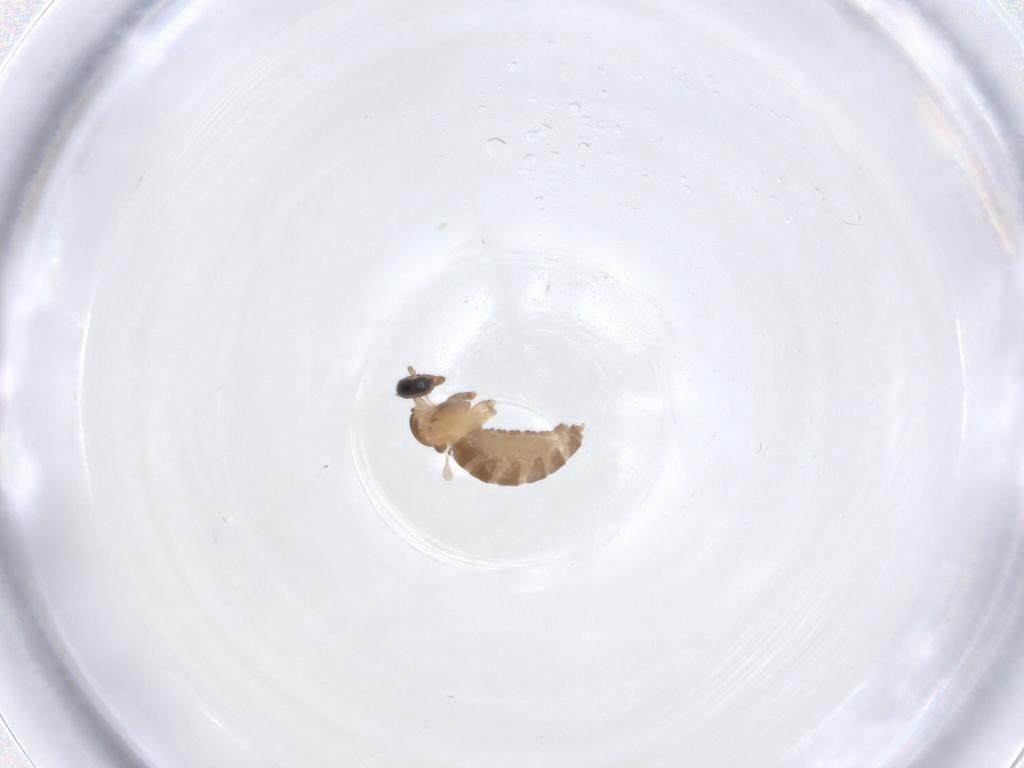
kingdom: Animalia
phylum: Arthropoda
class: Insecta
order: Diptera
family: Cecidomyiidae
